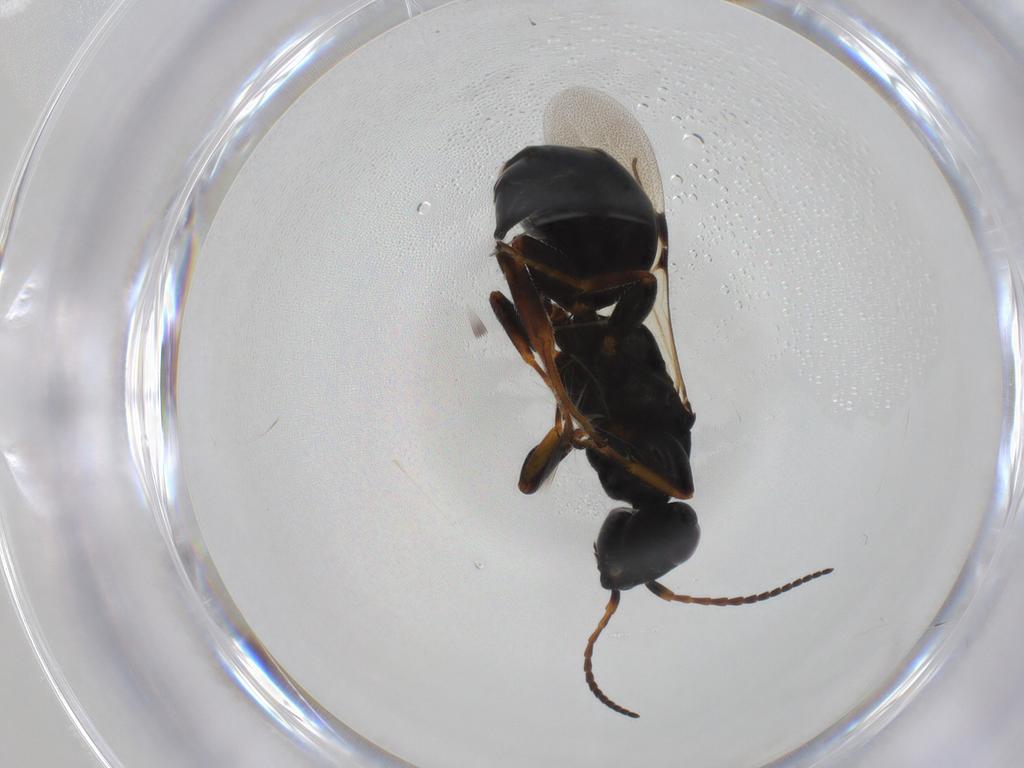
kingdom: Animalia
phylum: Arthropoda
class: Insecta
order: Hymenoptera
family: Bethylidae
